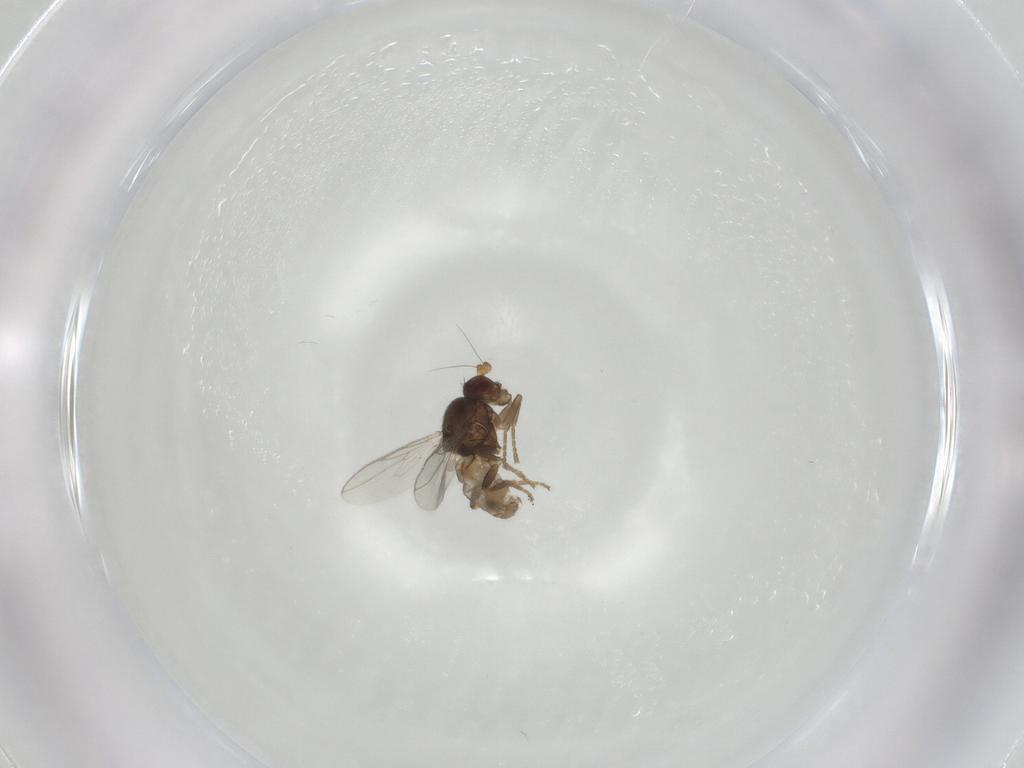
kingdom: Animalia
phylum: Arthropoda
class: Insecta
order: Diptera
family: Sphaeroceridae
